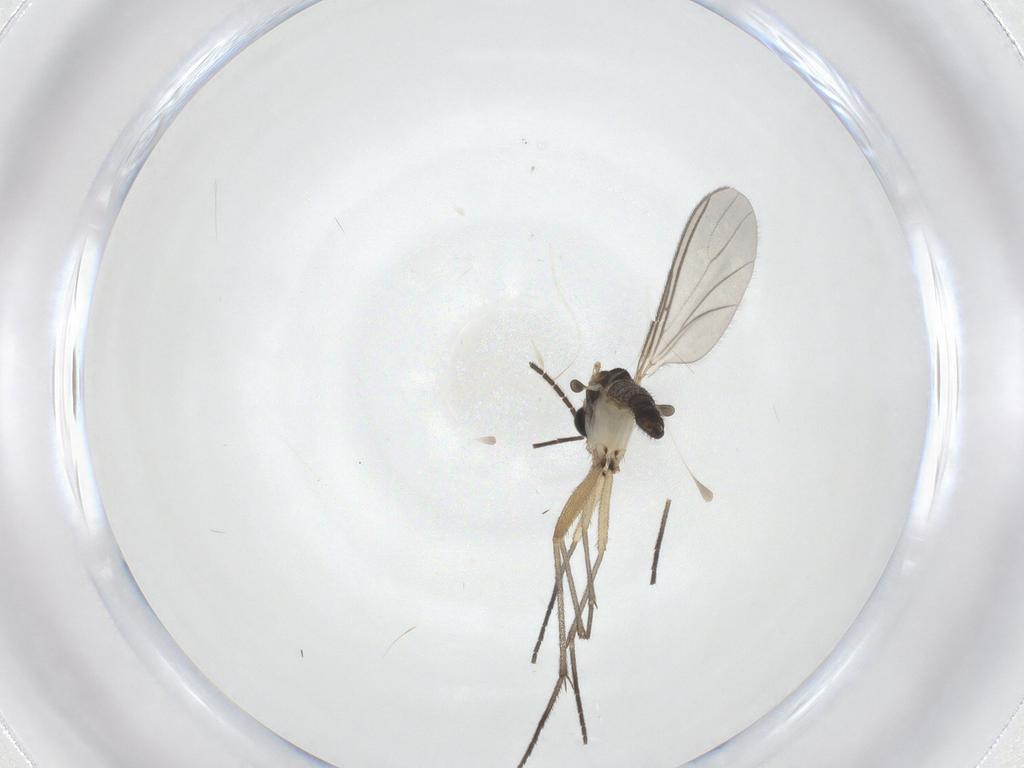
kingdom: Animalia
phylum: Arthropoda
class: Insecta
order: Diptera
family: Sciaridae
